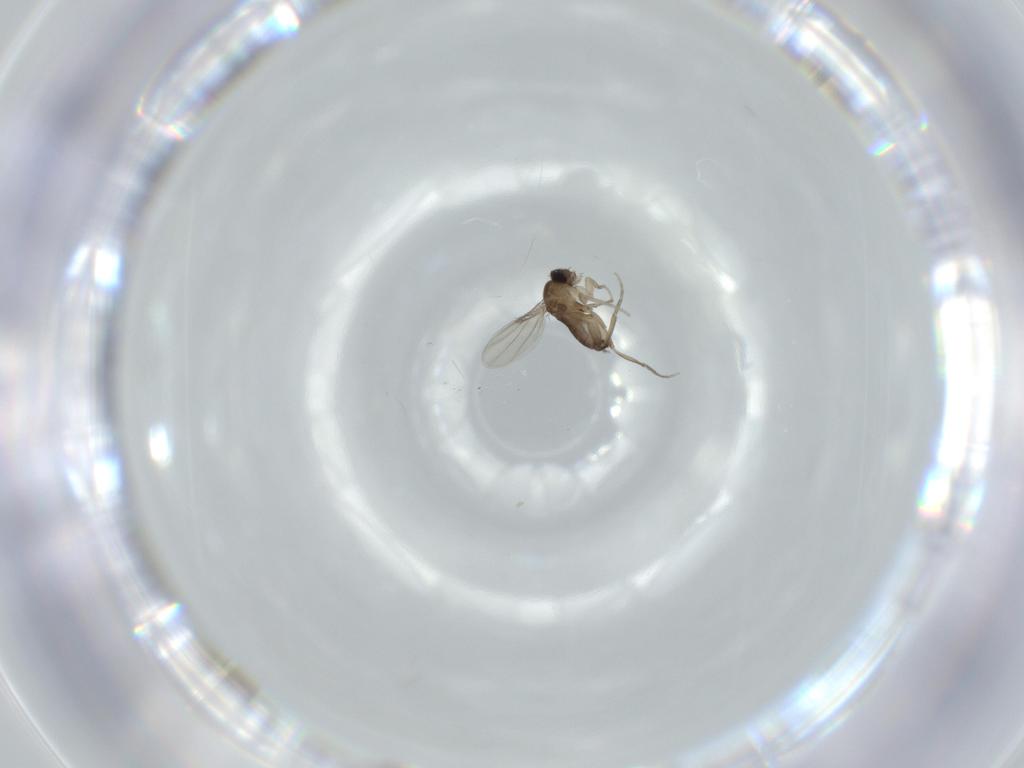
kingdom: Animalia
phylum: Arthropoda
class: Insecta
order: Diptera
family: Phoridae
